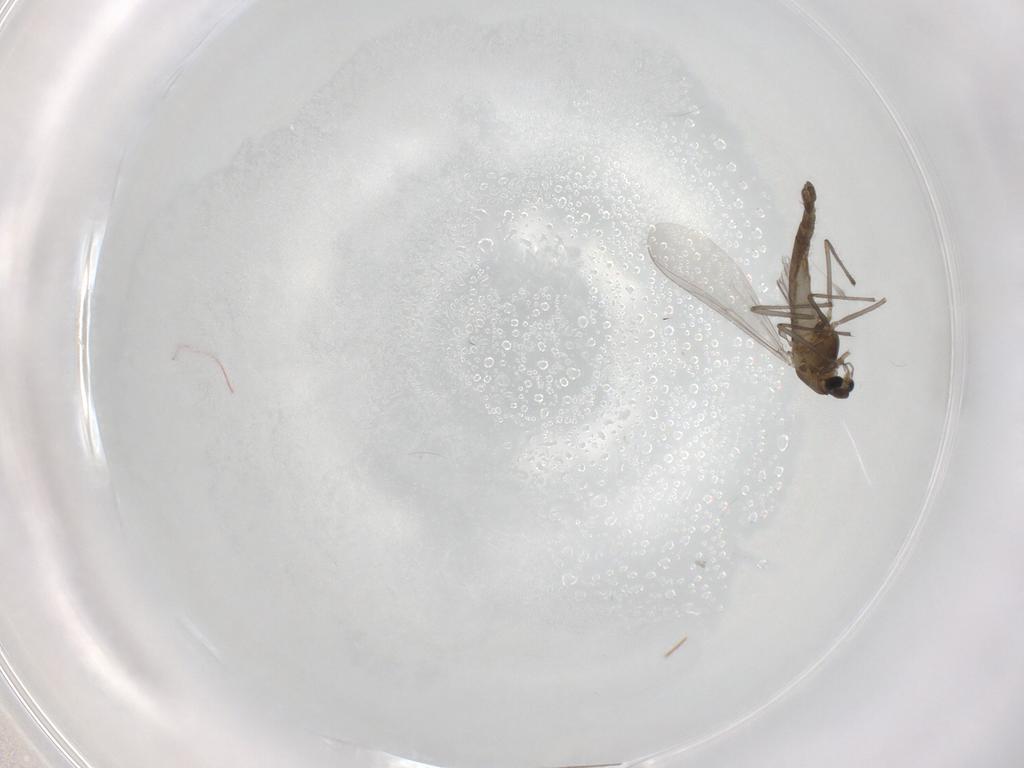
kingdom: Animalia
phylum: Arthropoda
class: Insecta
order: Diptera
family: Chironomidae
